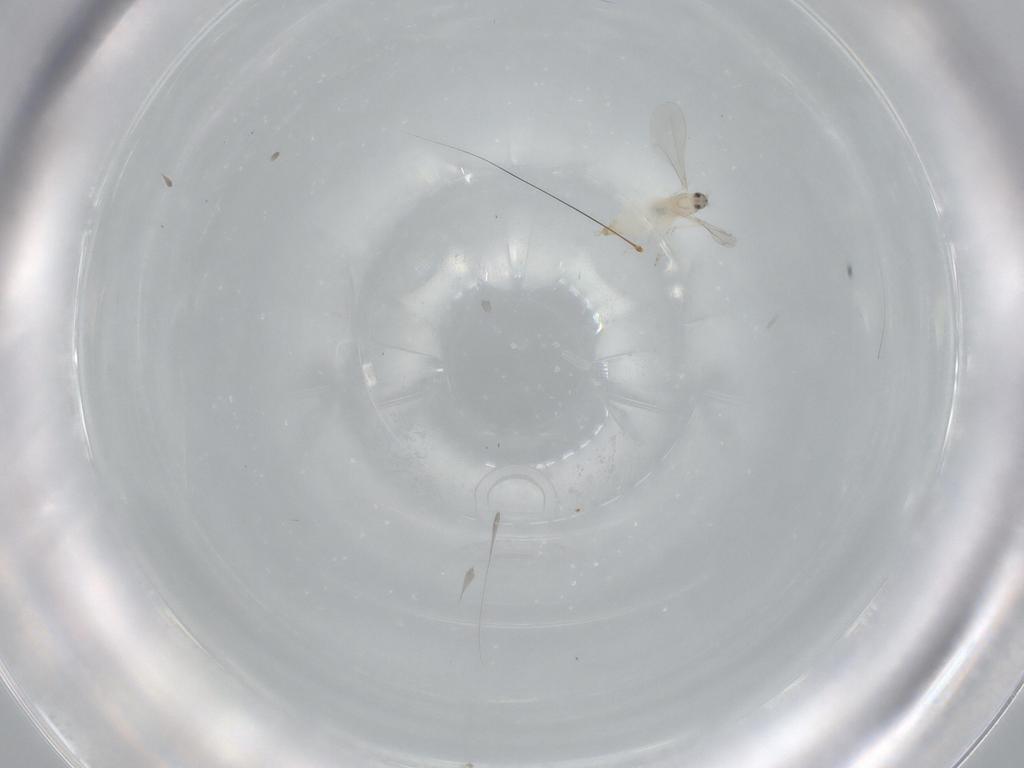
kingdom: Animalia
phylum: Arthropoda
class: Insecta
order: Diptera
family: Cecidomyiidae
